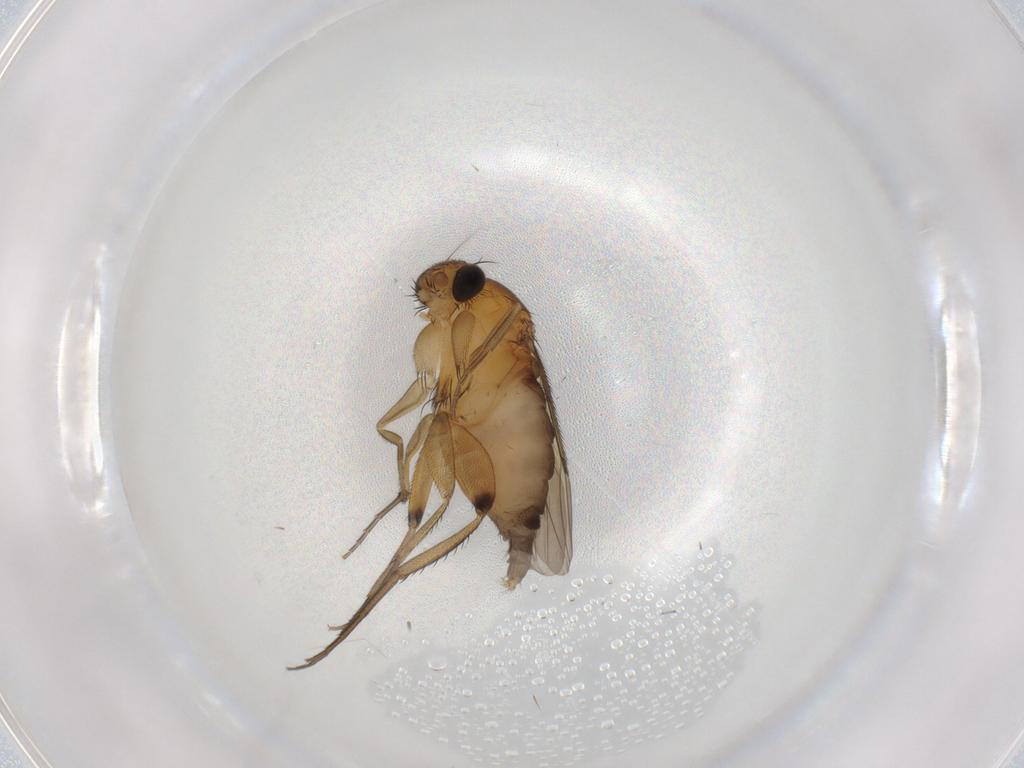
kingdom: Animalia
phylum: Arthropoda
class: Insecta
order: Diptera
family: Phoridae
